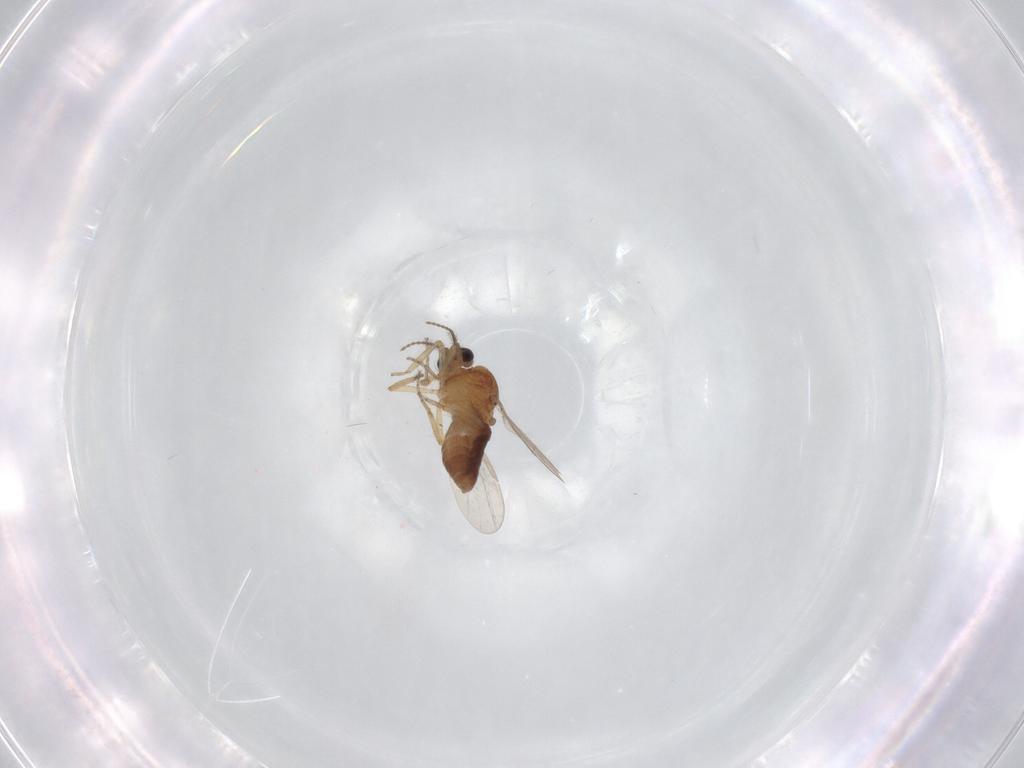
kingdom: Animalia
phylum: Arthropoda
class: Insecta
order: Diptera
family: Ceratopogonidae
